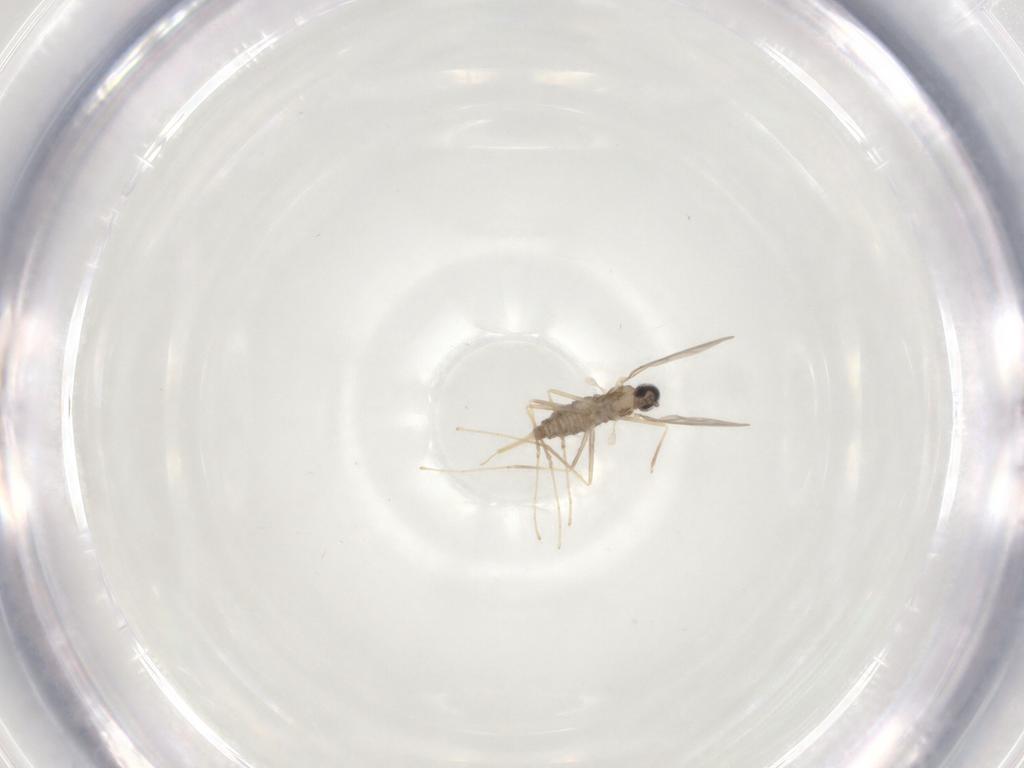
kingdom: Animalia
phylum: Arthropoda
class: Insecta
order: Diptera
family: Cecidomyiidae
